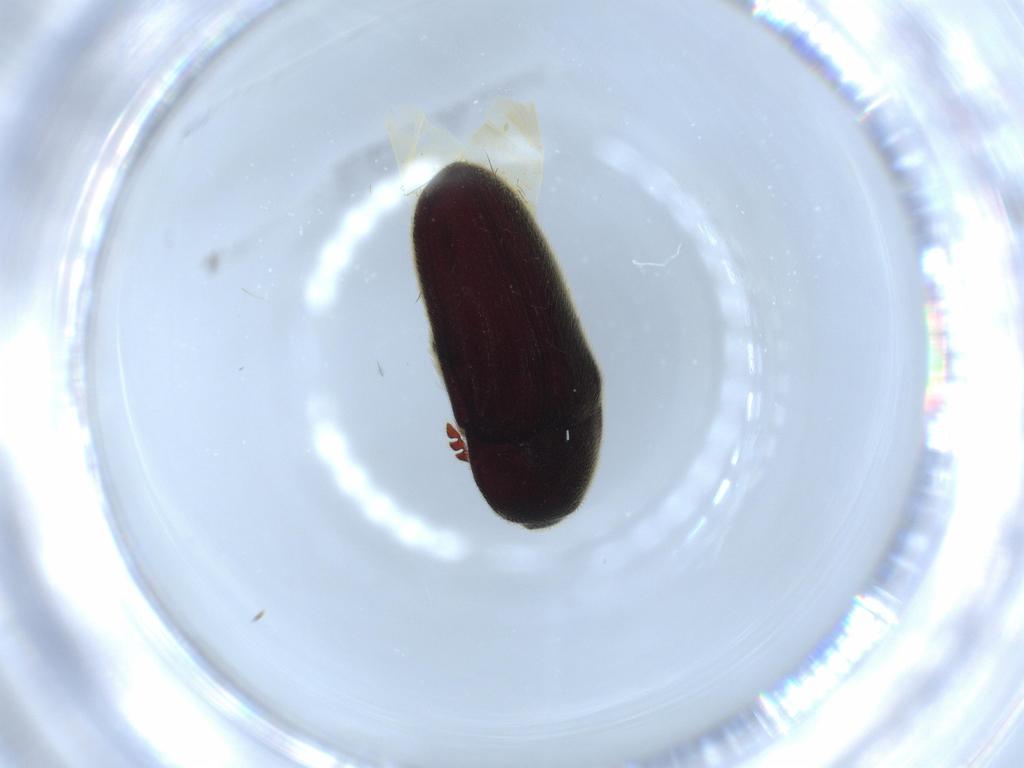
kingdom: Animalia
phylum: Arthropoda
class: Insecta
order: Coleoptera
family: Throscidae
